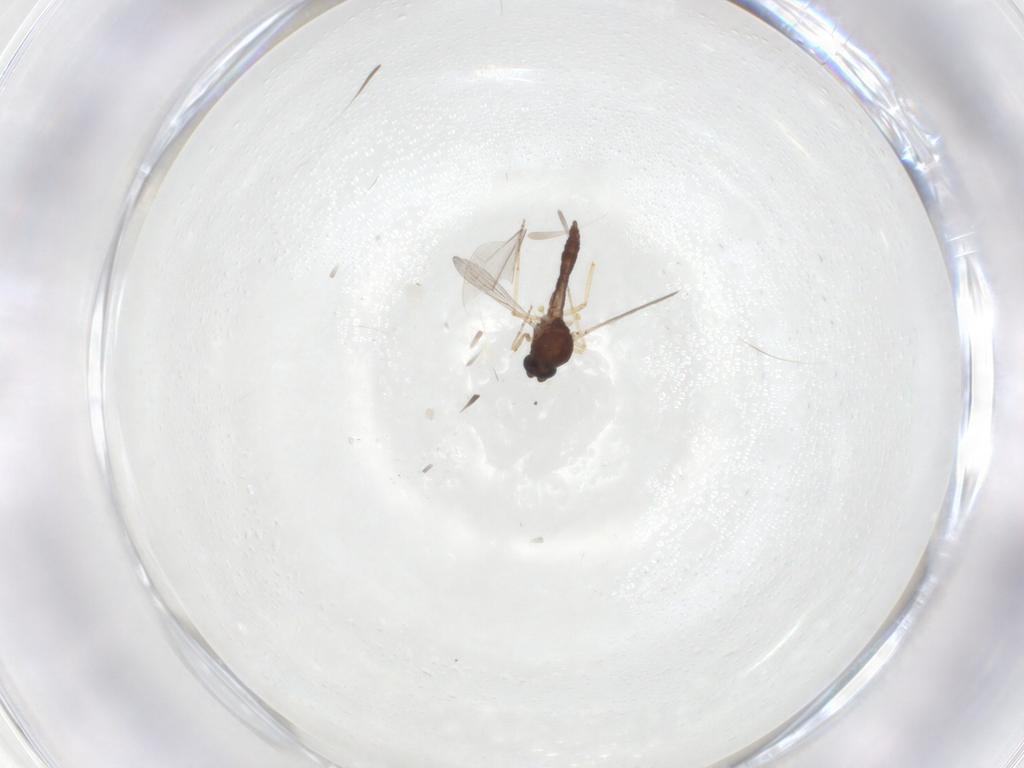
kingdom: Animalia
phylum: Arthropoda
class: Insecta
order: Diptera
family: Ceratopogonidae
